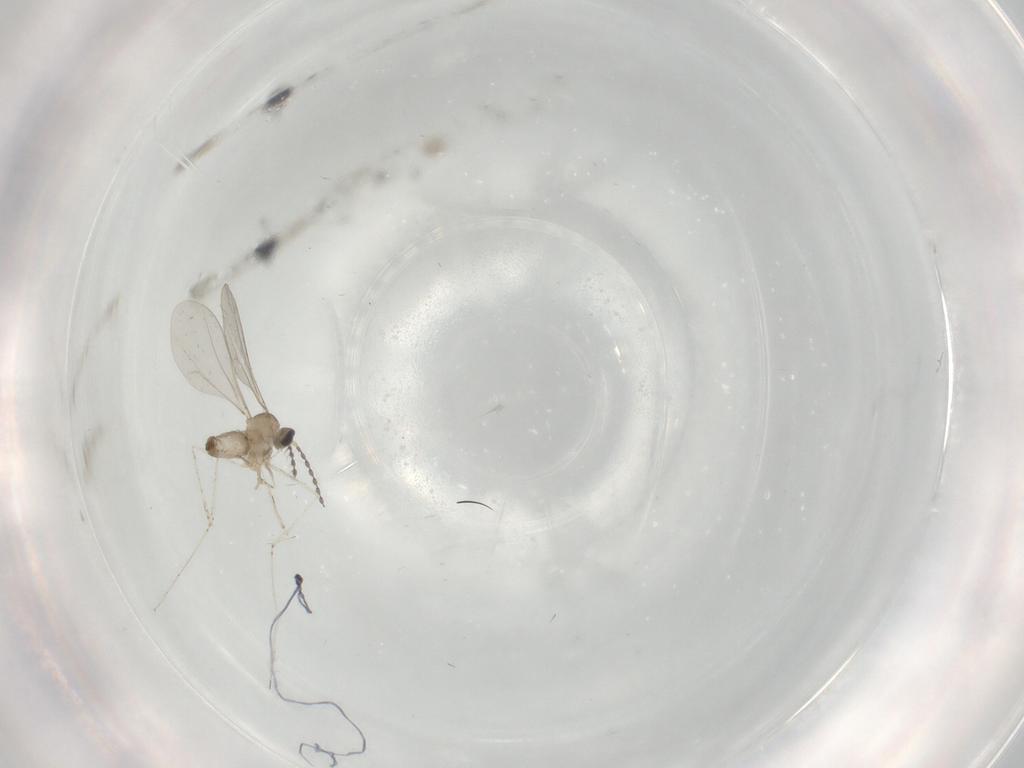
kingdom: Animalia
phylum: Arthropoda
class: Insecta
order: Diptera
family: Cecidomyiidae
